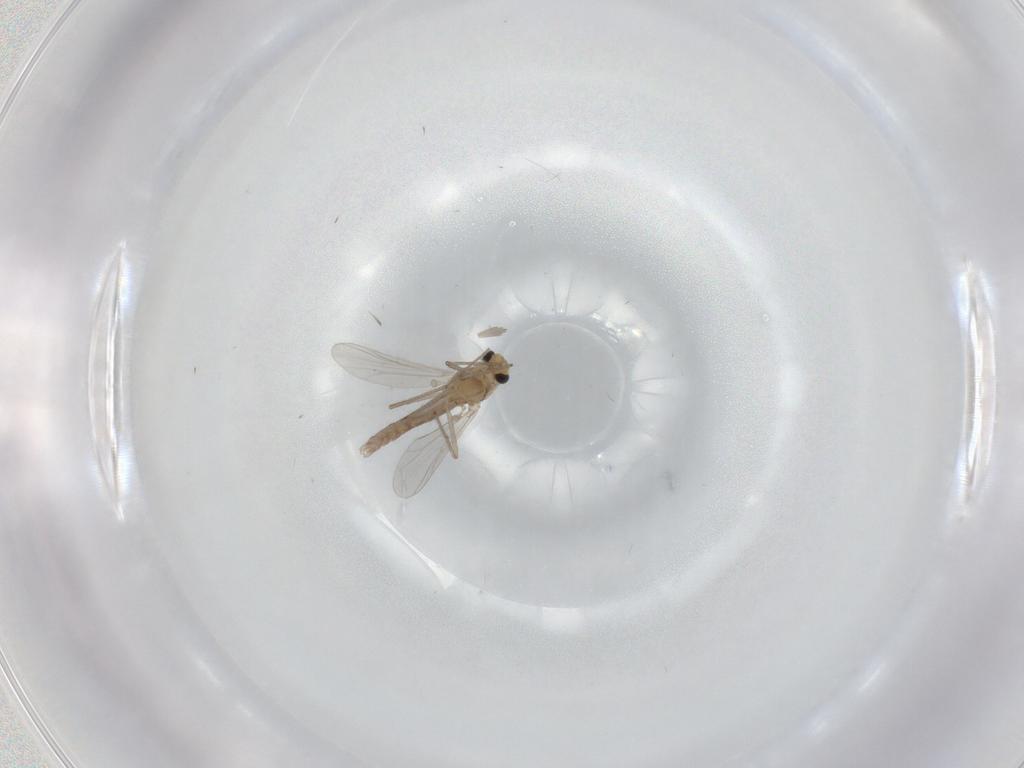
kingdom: Animalia
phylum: Arthropoda
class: Insecta
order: Diptera
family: Chironomidae
